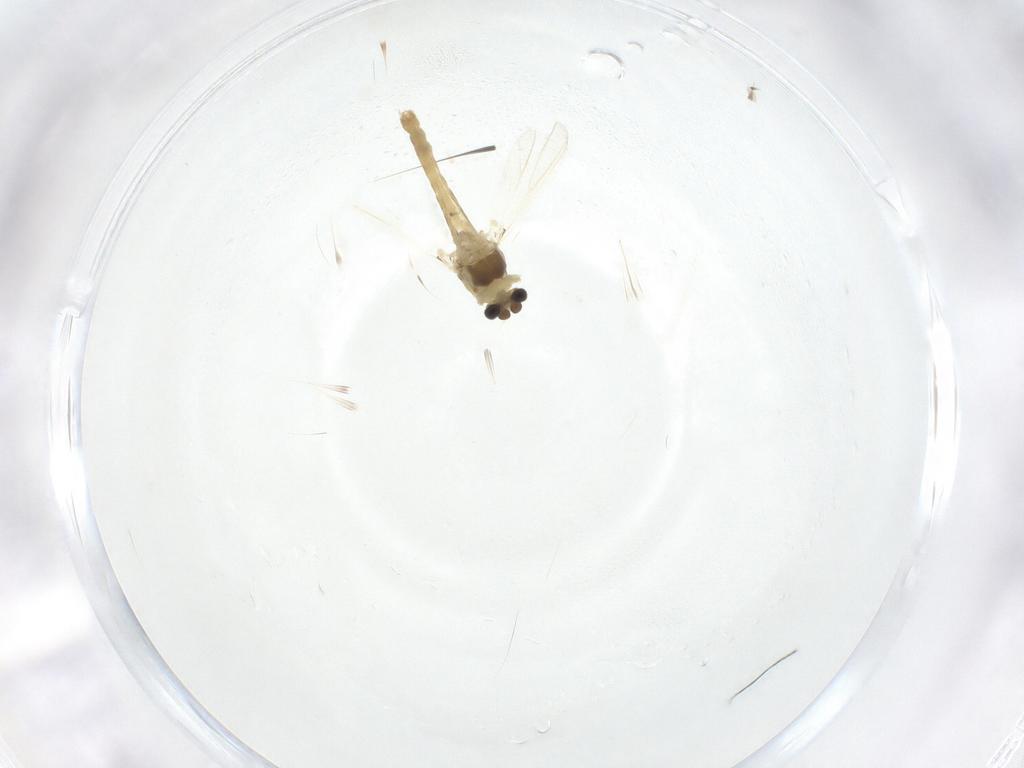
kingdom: Animalia
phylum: Arthropoda
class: Insecta
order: Diptera
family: Chironomidae
